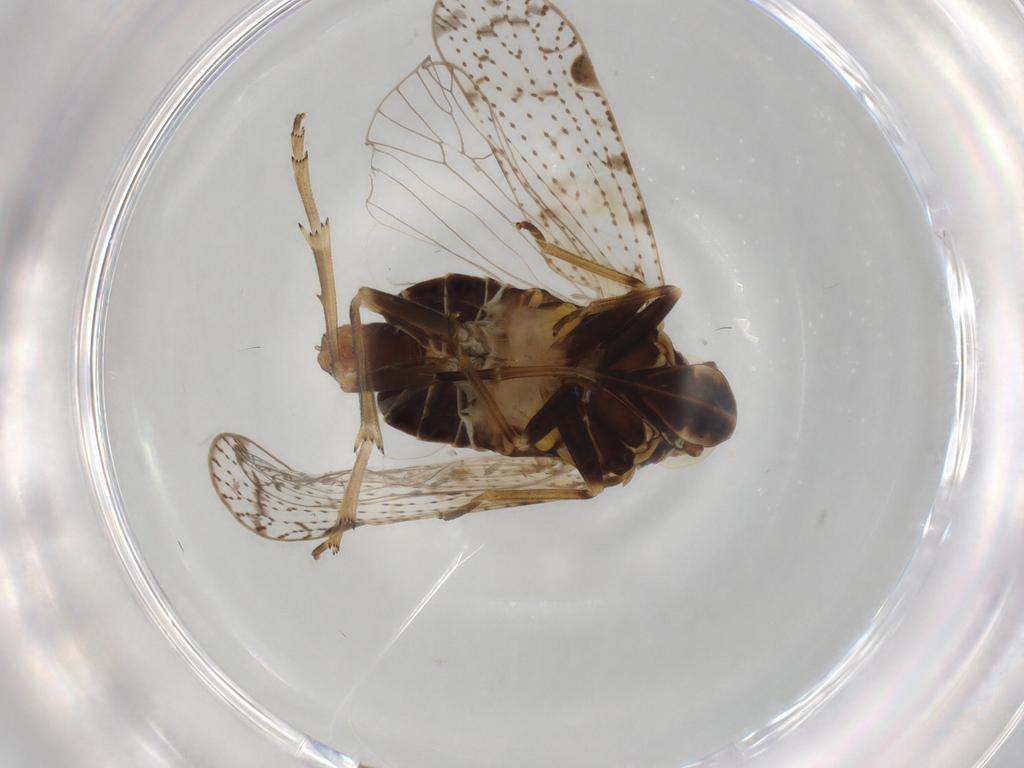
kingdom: Animalia
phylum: Arthropoda
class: Insecta
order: Hemiptera
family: Cixiidae
